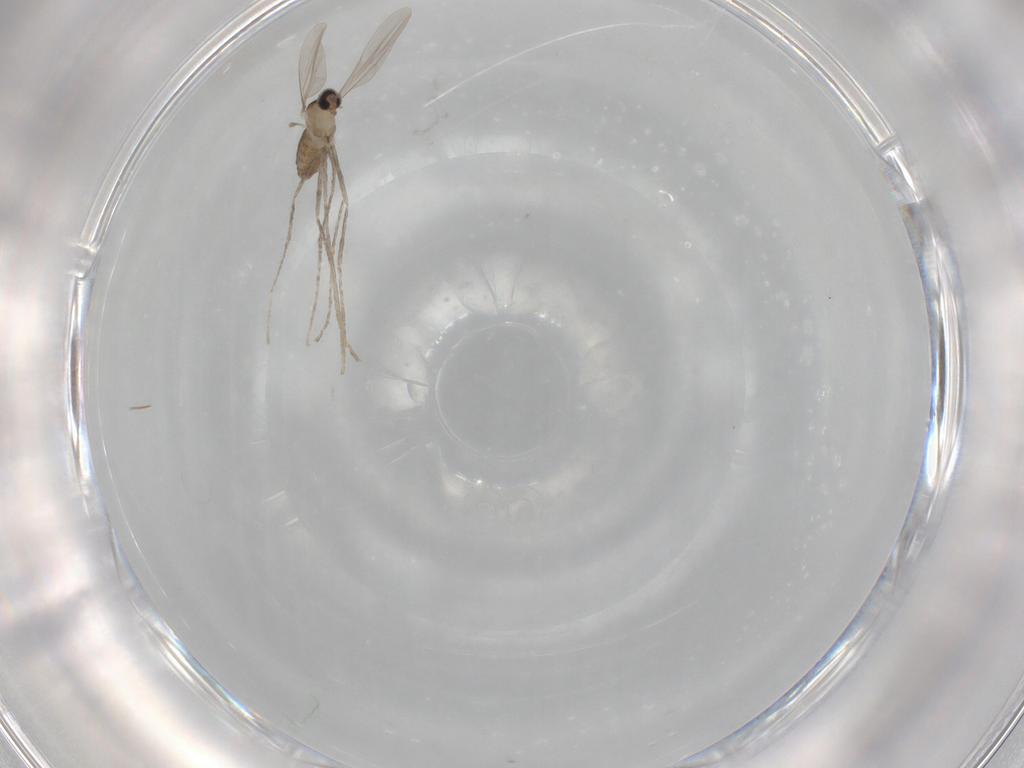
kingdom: Animalia
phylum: Arthropoda
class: Insecta
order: Diptera
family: Cecidomyiidae
